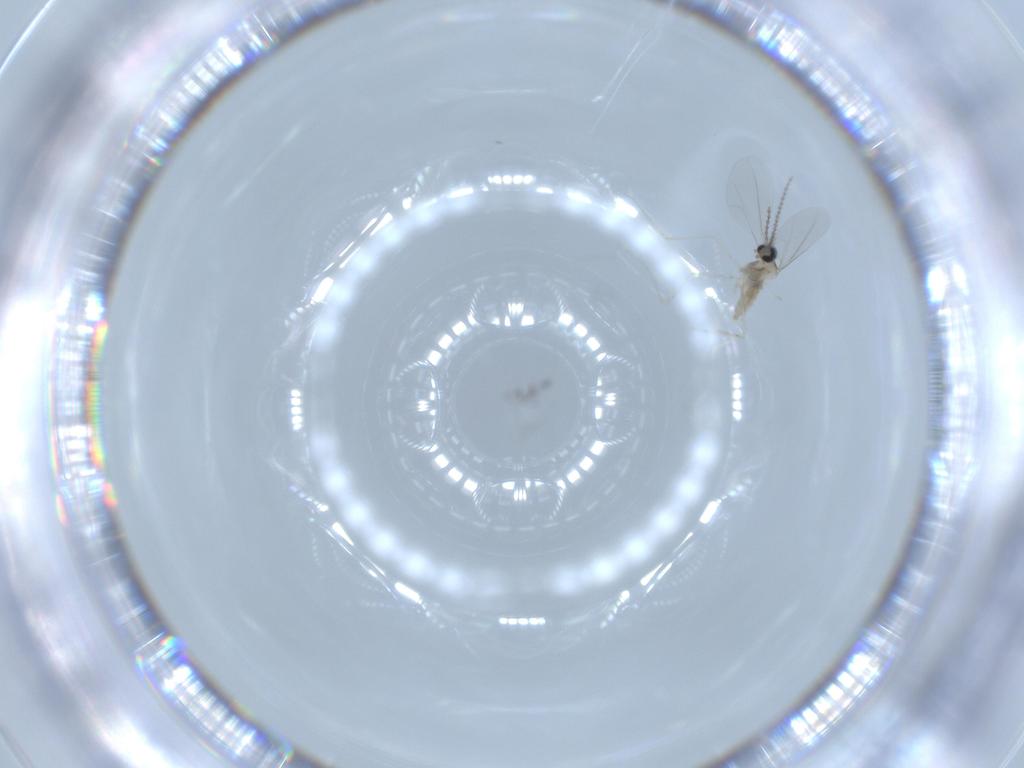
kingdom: Animalia
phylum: Arthropoda
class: Insecta
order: Diptera
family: Cecidomyiidae
